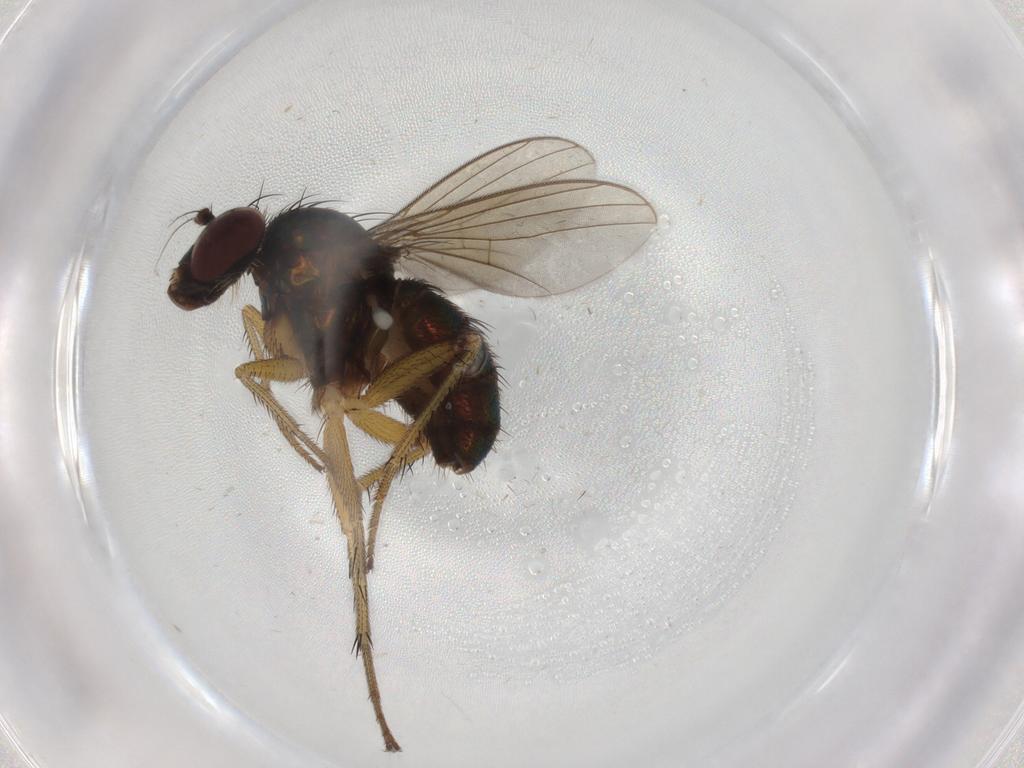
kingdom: Animalia
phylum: Arthropoda
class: Insecta
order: Diptera
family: Dolichopodidae
